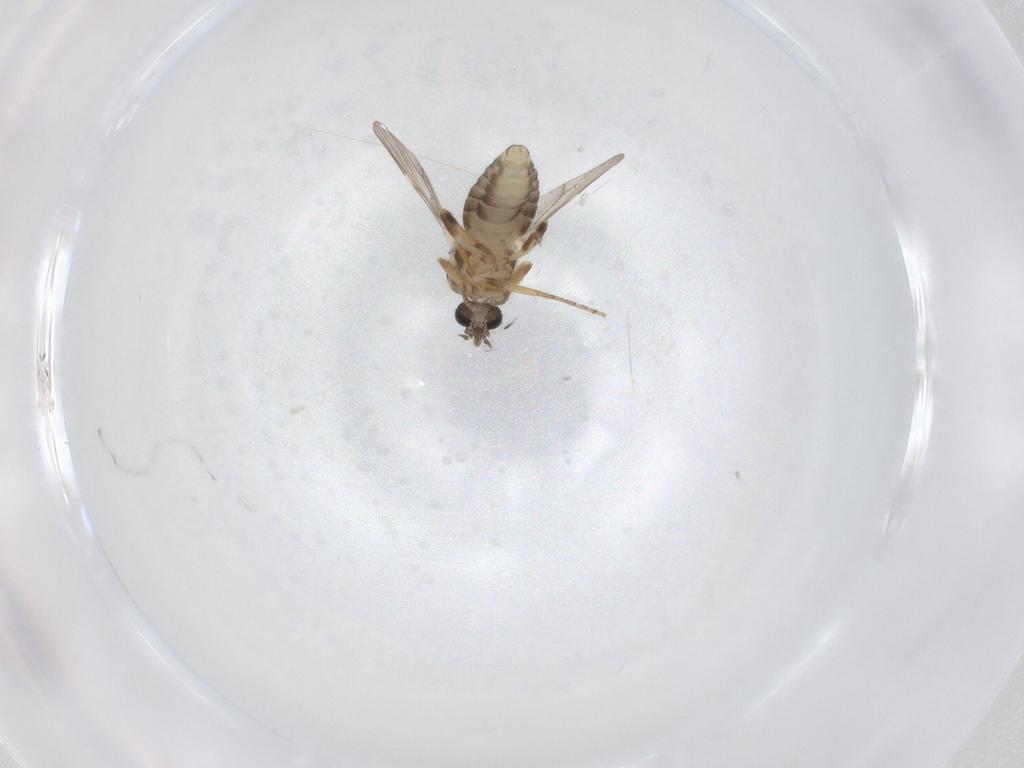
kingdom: Animalia
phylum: Arthropoda
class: Insecta
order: Diptera
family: Ceratopogonidae
